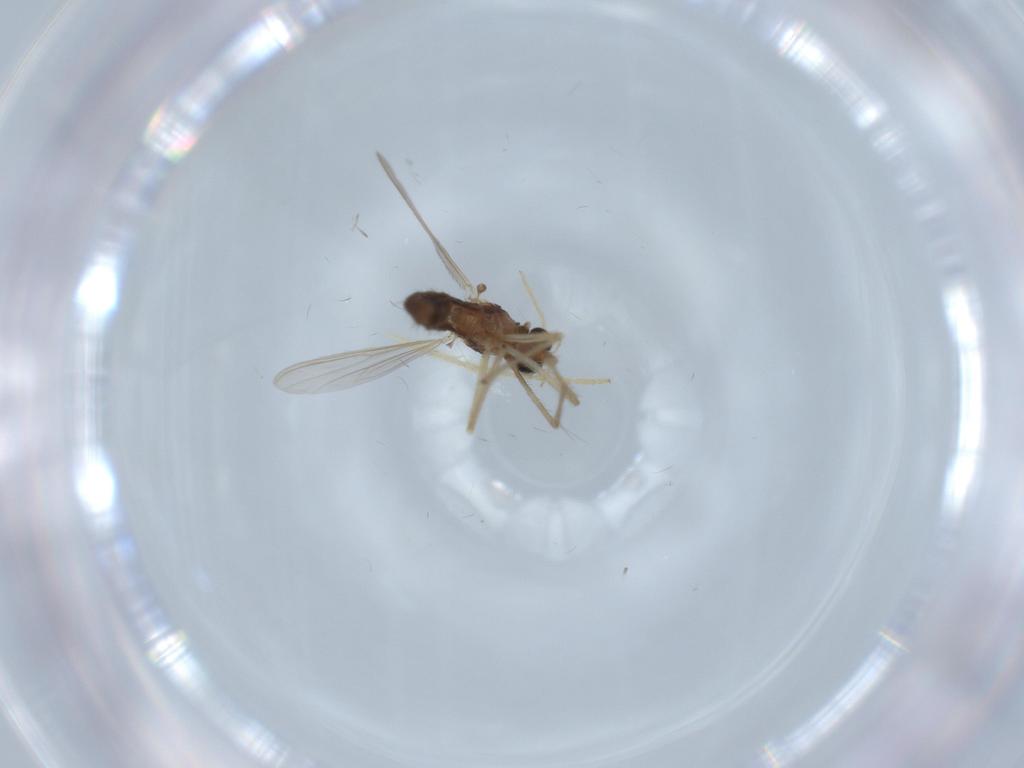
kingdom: Animalia
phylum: Arthropoda
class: Insecta
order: Diptera
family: Chironomidae
